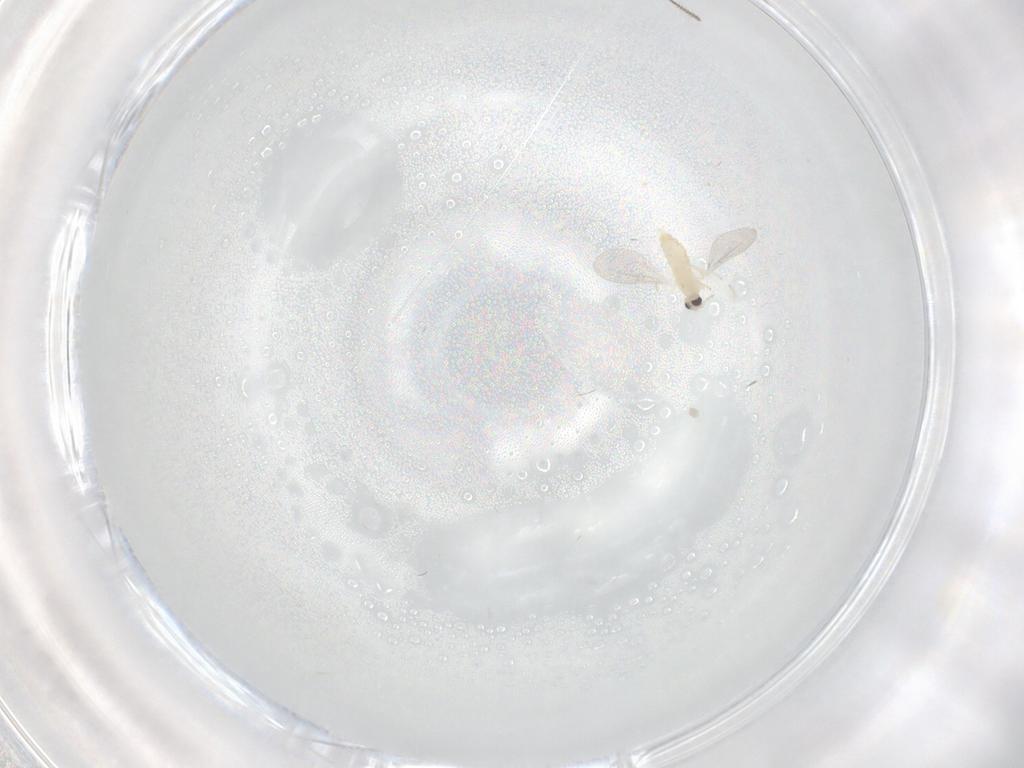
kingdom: Animalia
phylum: Arthropoda
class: Insecta
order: Diptera
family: Cecidomyiidae
